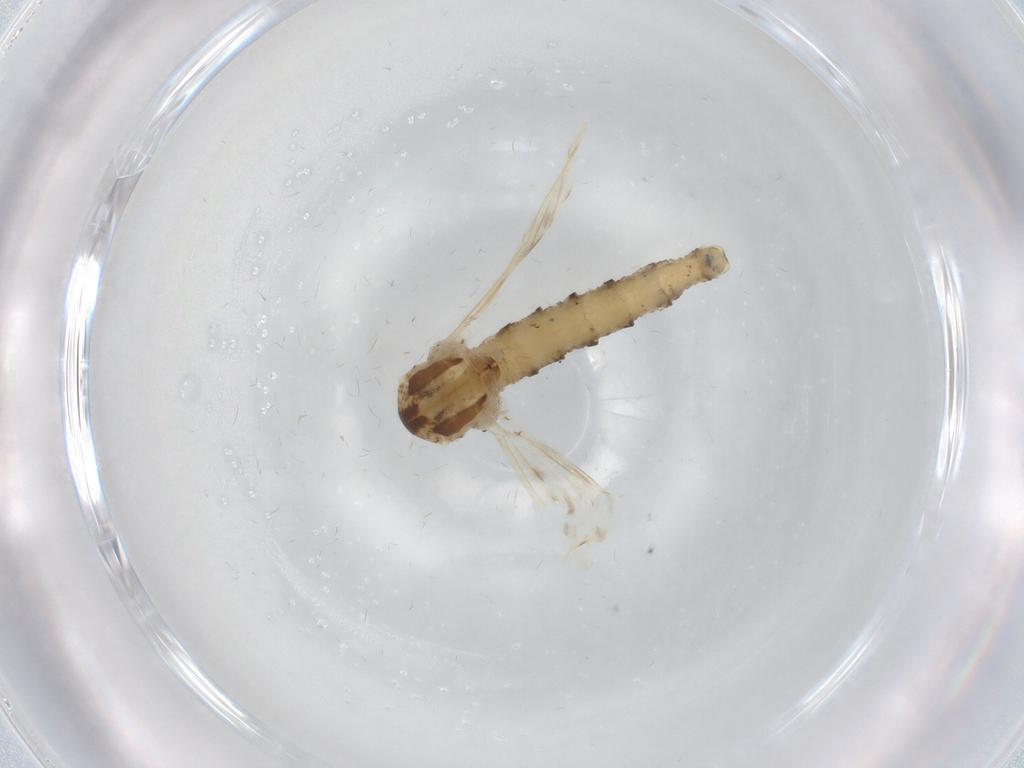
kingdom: Animalia
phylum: Arthropoda
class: Insecta
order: Diptera
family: Chaoboridae
